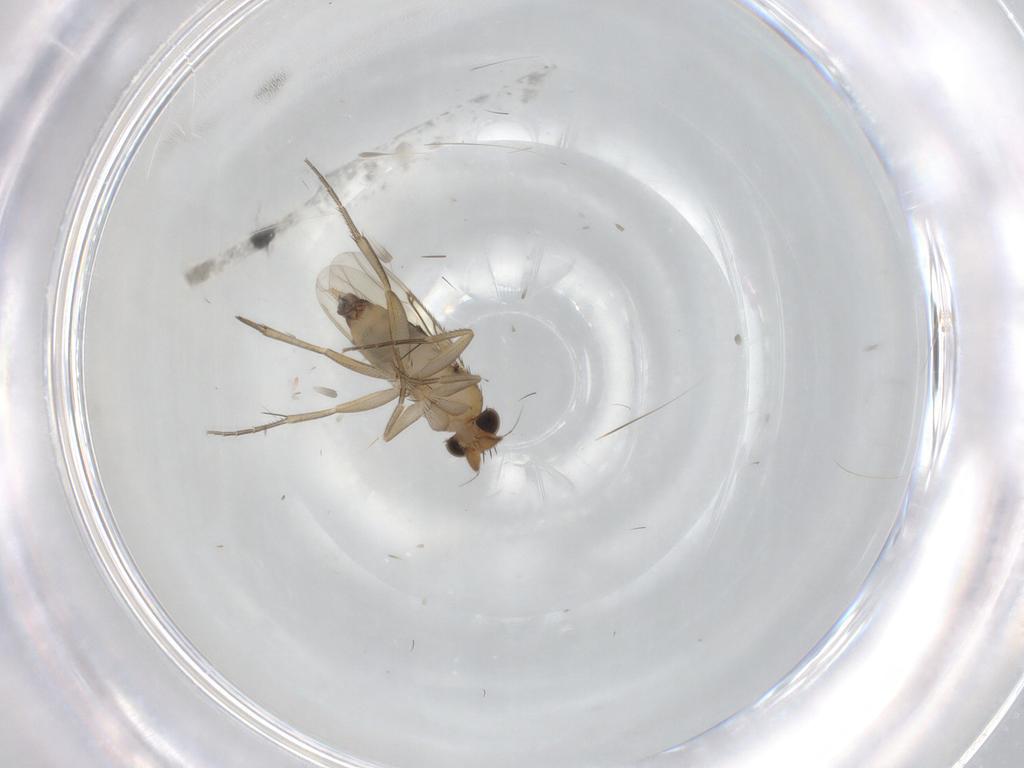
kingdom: Animalia
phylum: Arthropoda
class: Insecta
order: Diptera
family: Phoridae
